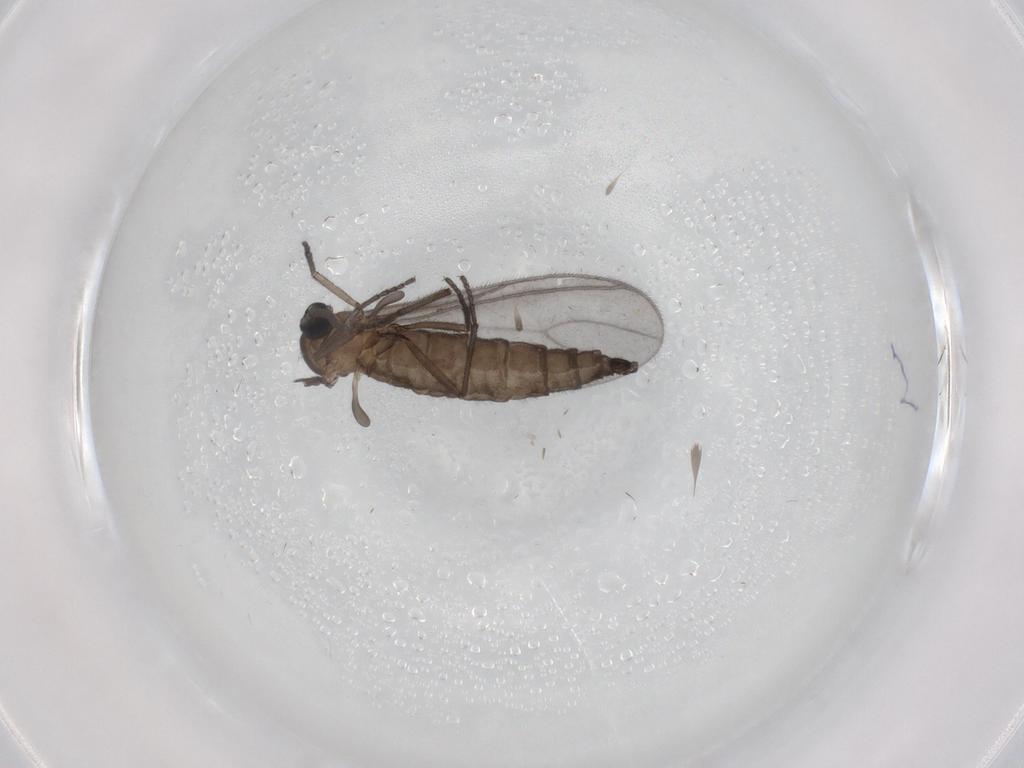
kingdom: Animalia
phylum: Arthropoda
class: Insecta
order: Diptera
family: Sciaridae
